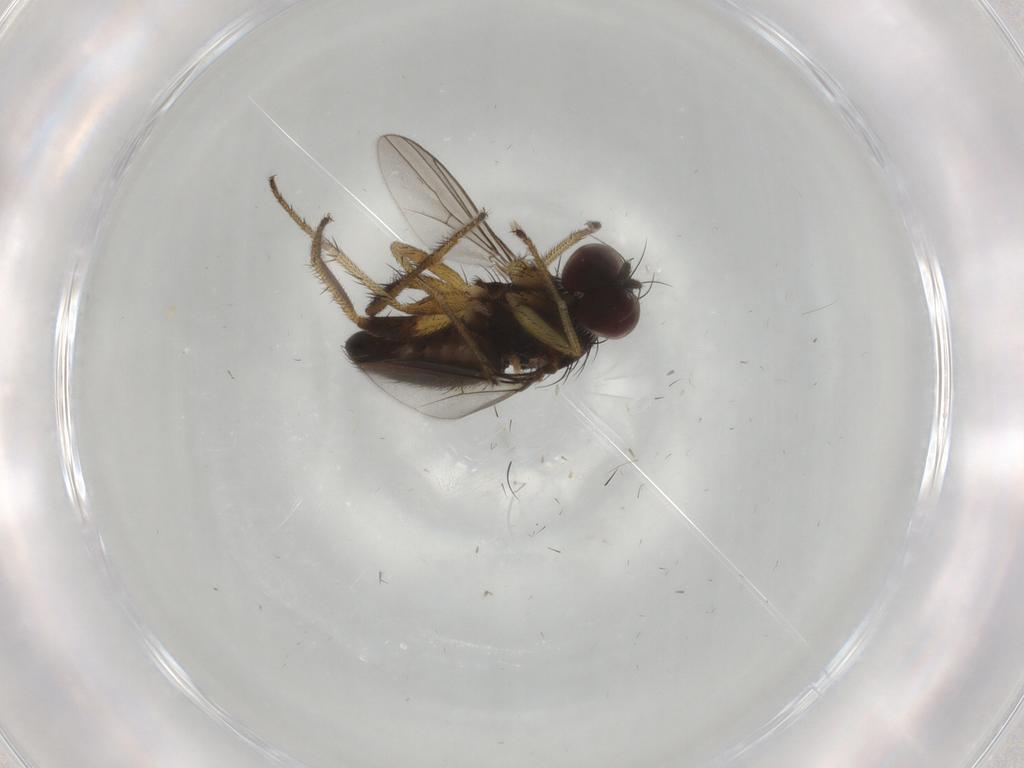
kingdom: Animalia
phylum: Arthropoda
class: Insecta
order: Diptera
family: Dolichopodidae
